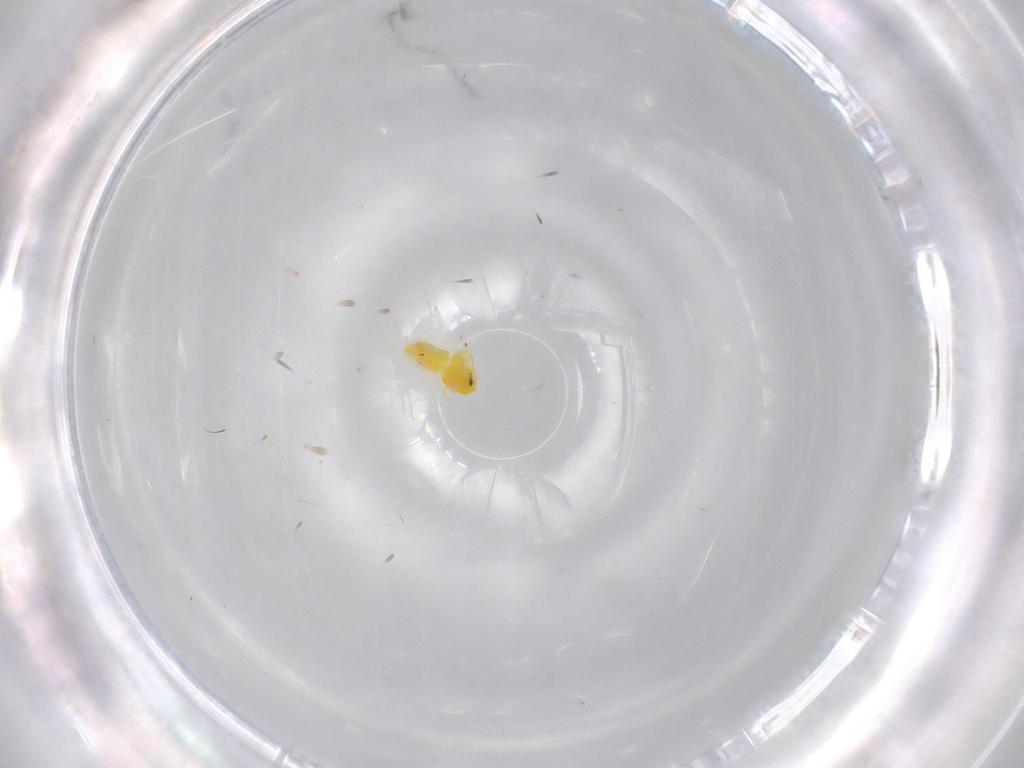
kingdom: Animalia
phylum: Arthropoda
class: Insecta
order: Hemiptera
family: Aleyrodidae
